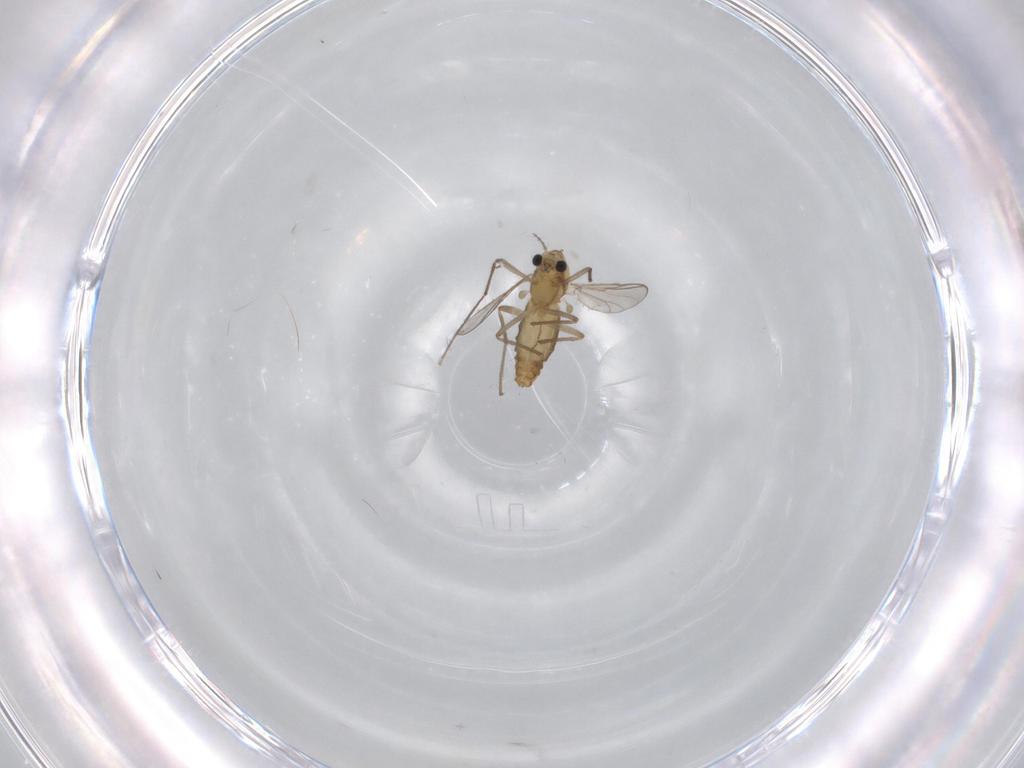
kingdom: Animalia
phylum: Arthropoda
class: Insecta
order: Diptera
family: Chironomidae
